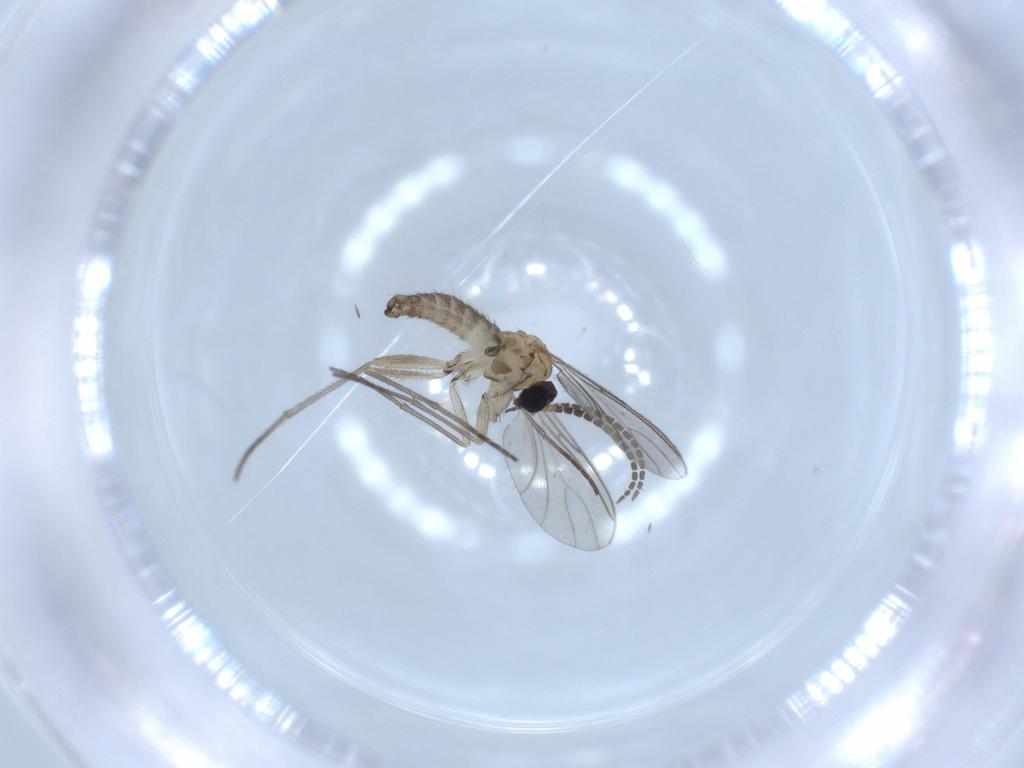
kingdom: Animalia
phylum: Arthropoda
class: Insecta
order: Diptera
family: Sciaridae
